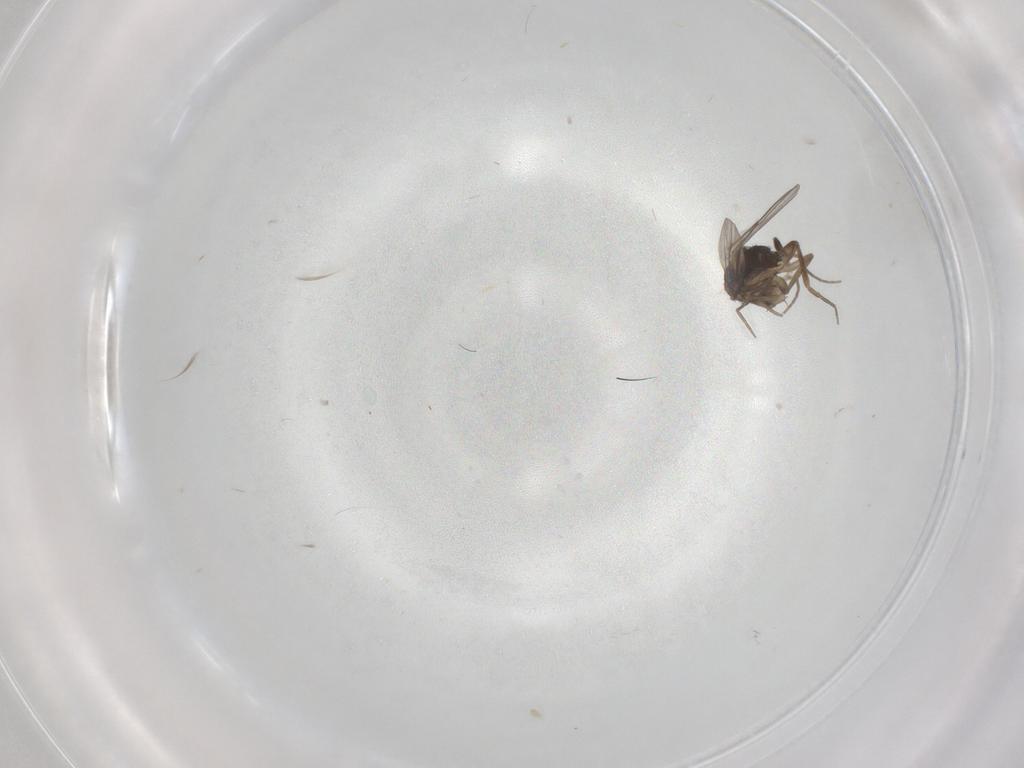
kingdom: Animalia
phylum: Arthropoda
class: Insecta
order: Diptera
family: Phoridae
